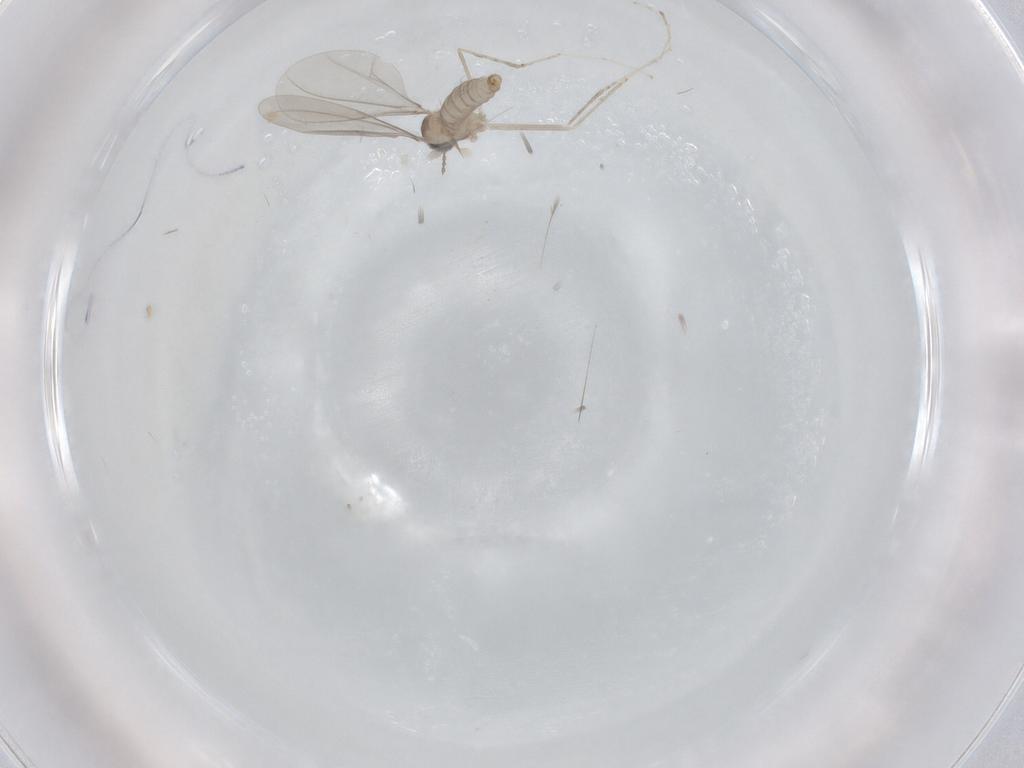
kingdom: Animalia
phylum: Arthropoda
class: Insecta
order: Diptera
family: Cecidomyiidae
